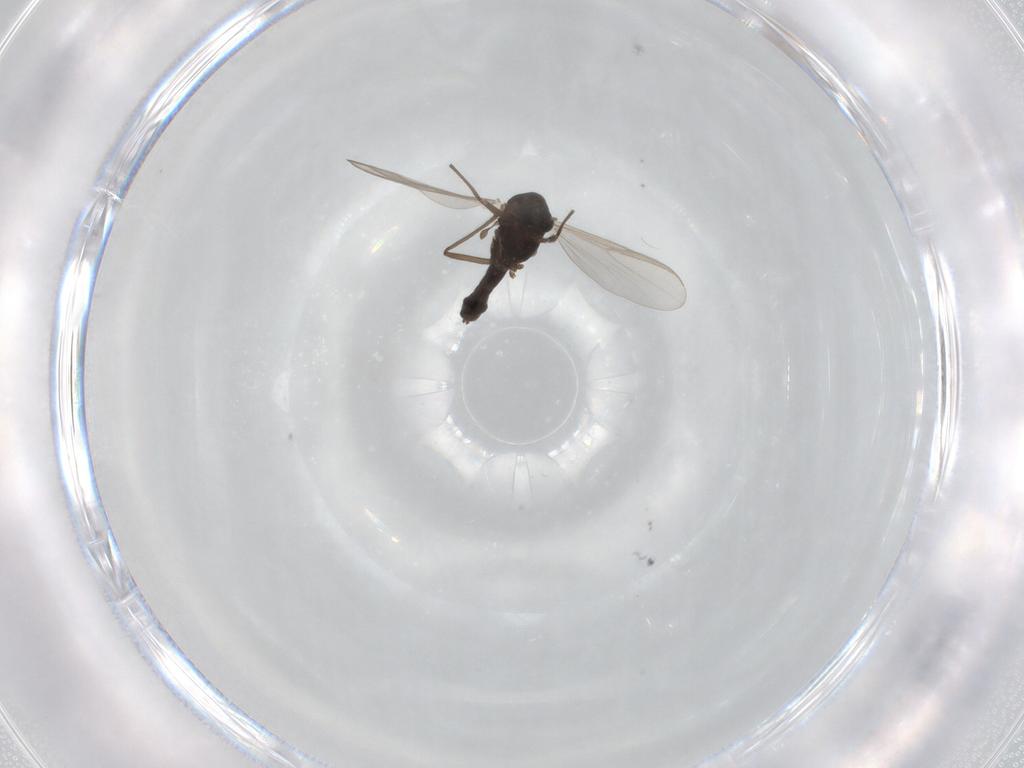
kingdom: Animalia
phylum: Arthropoda
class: Insecta
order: Diptera
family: Chironomidae
